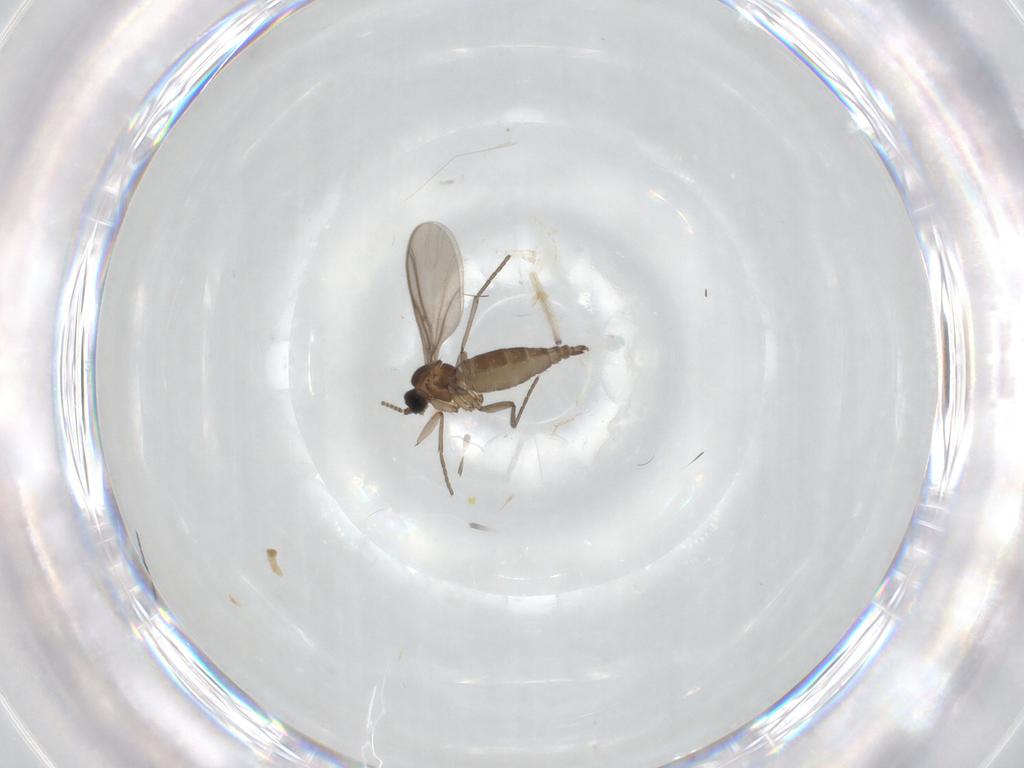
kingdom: Animalia
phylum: Arthropoda
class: Insecta
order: Diptera
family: Sciaridae
